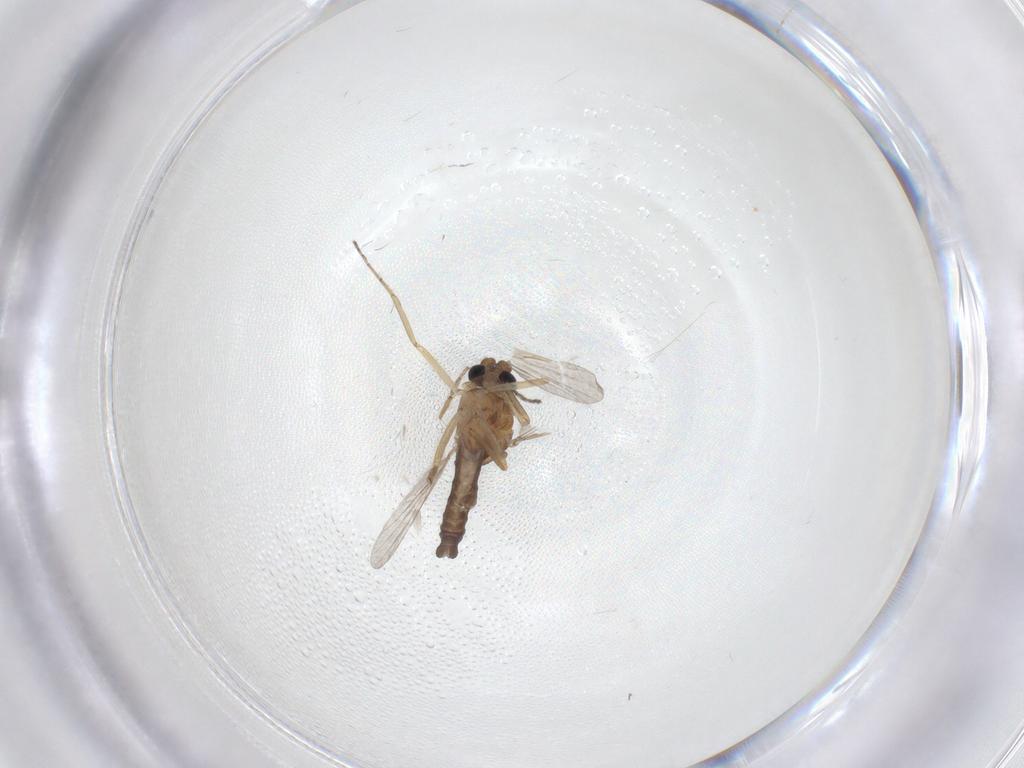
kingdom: Animalia
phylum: Arthropoda
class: Insecta
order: Diptera
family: Ceratopogonidae
